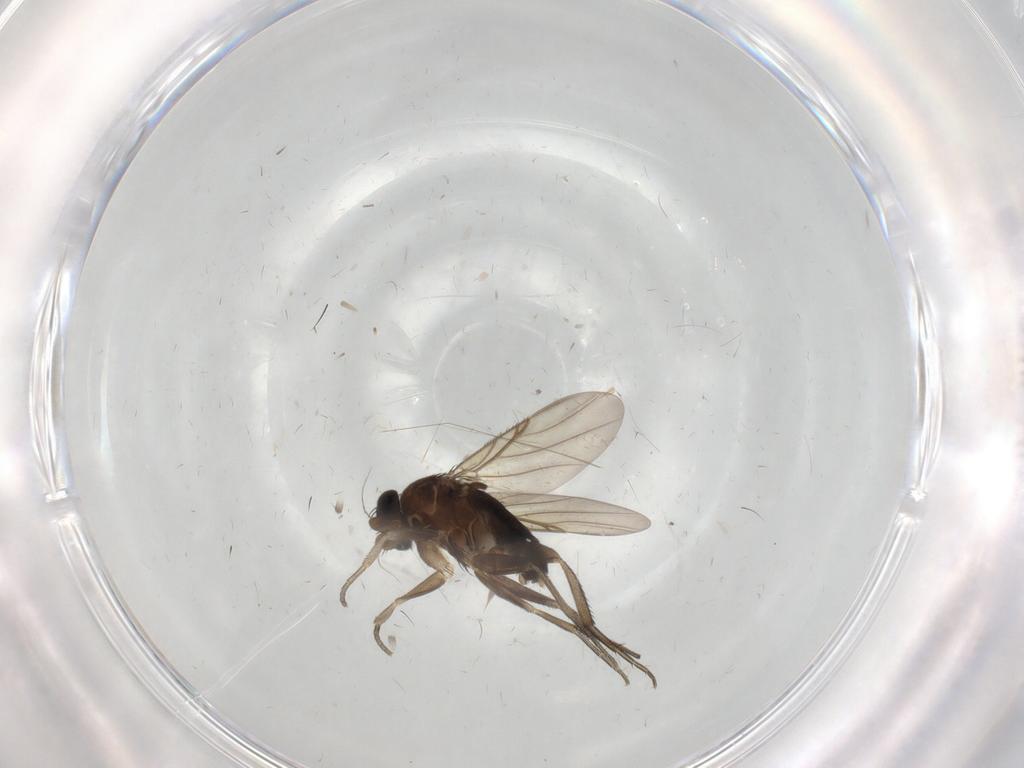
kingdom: Animalia
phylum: Arthropoda
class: Insecta
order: Diptera
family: Phoridae
